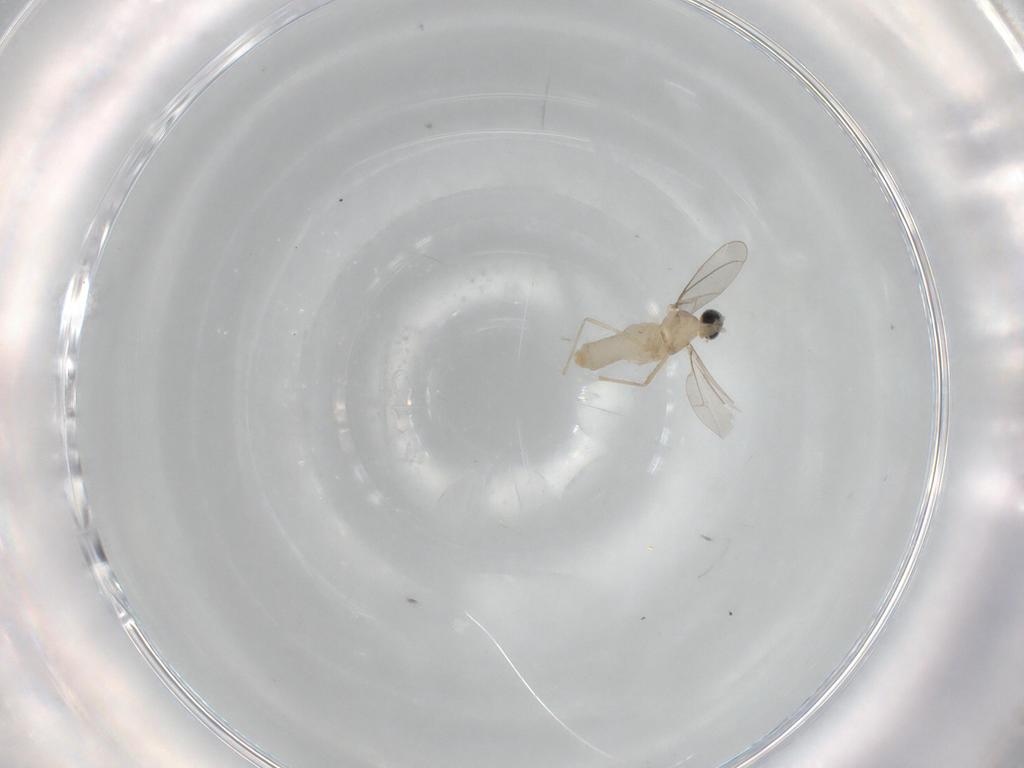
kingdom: Animalia
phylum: Arthropoda
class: Insecta
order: Diptera
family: Cecidomyiidae
